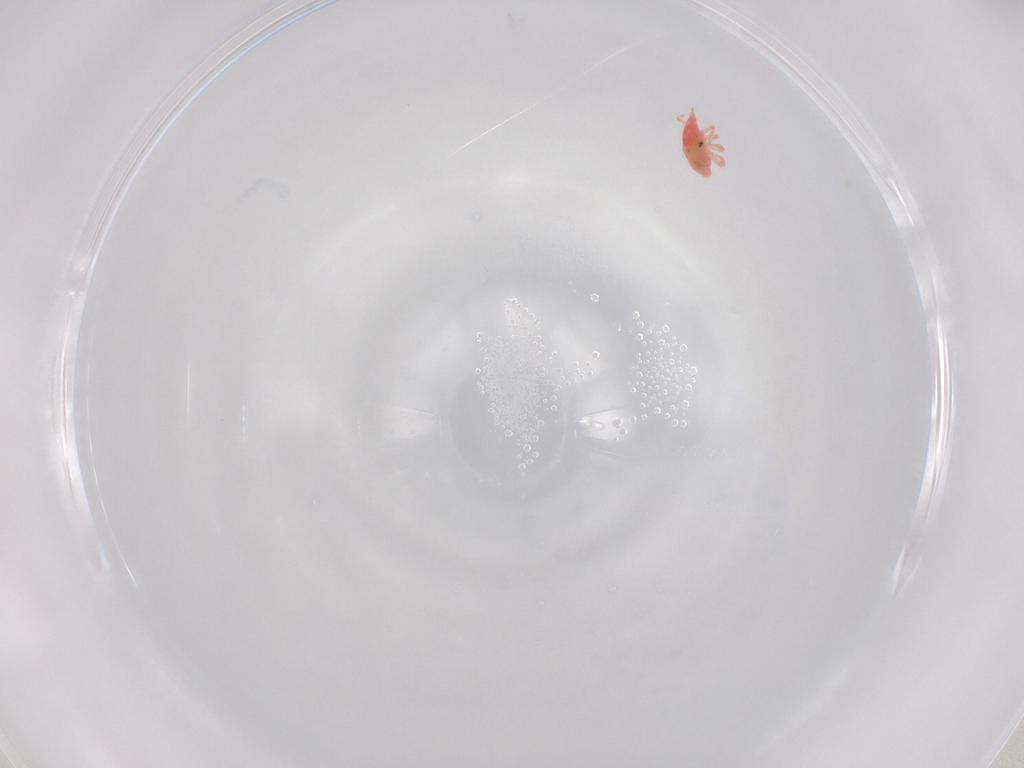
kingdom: Animalia
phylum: Arthropoda
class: Arachnida
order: Trombidiformes
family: Bdellidae
